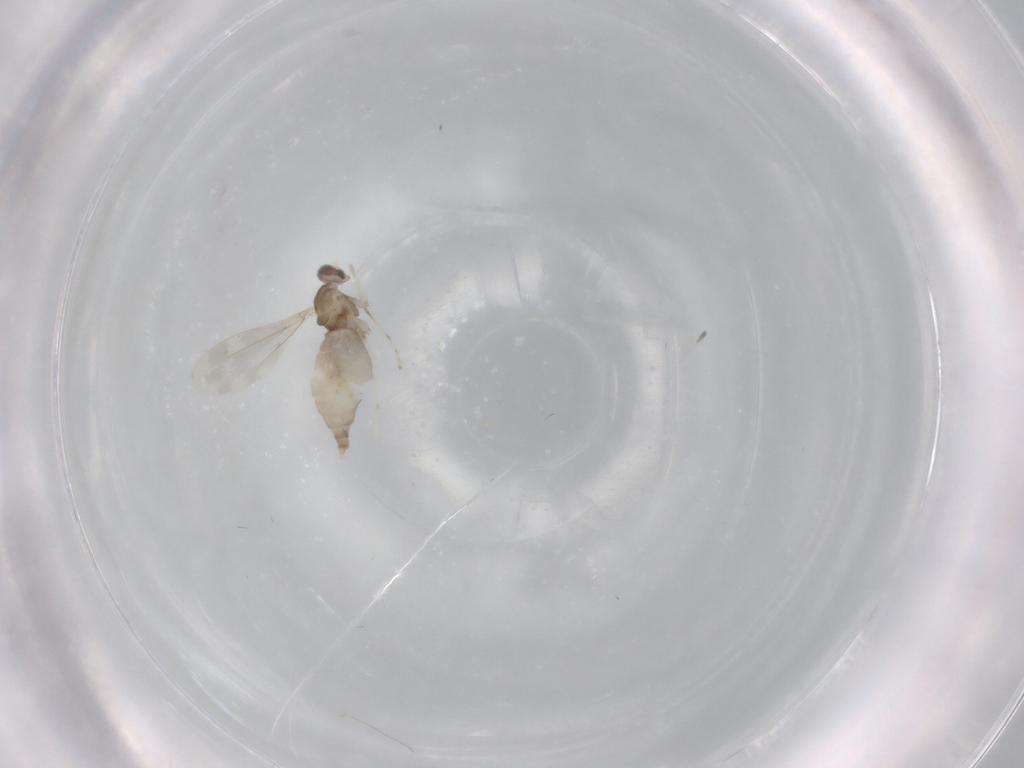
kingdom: Animalia
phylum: Arthropoda
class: Insecta
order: Diptera
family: Cecidomyiidae
